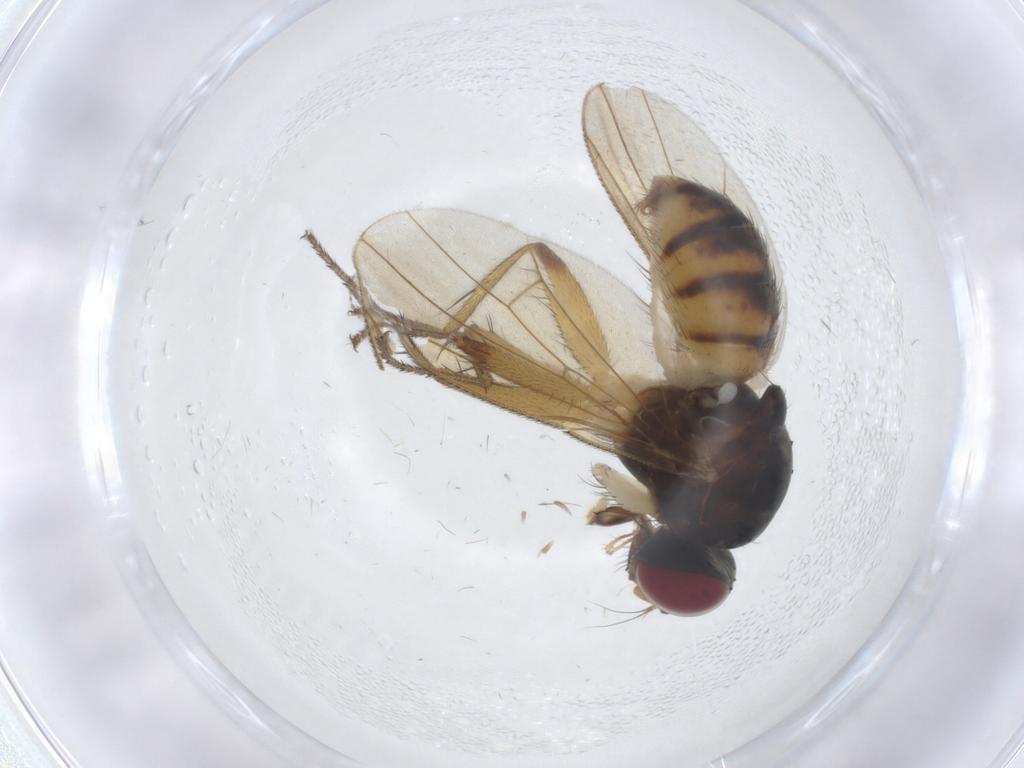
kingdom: Animalia
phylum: Arthropoda
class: Insecta
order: Diptera
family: Muscidae
